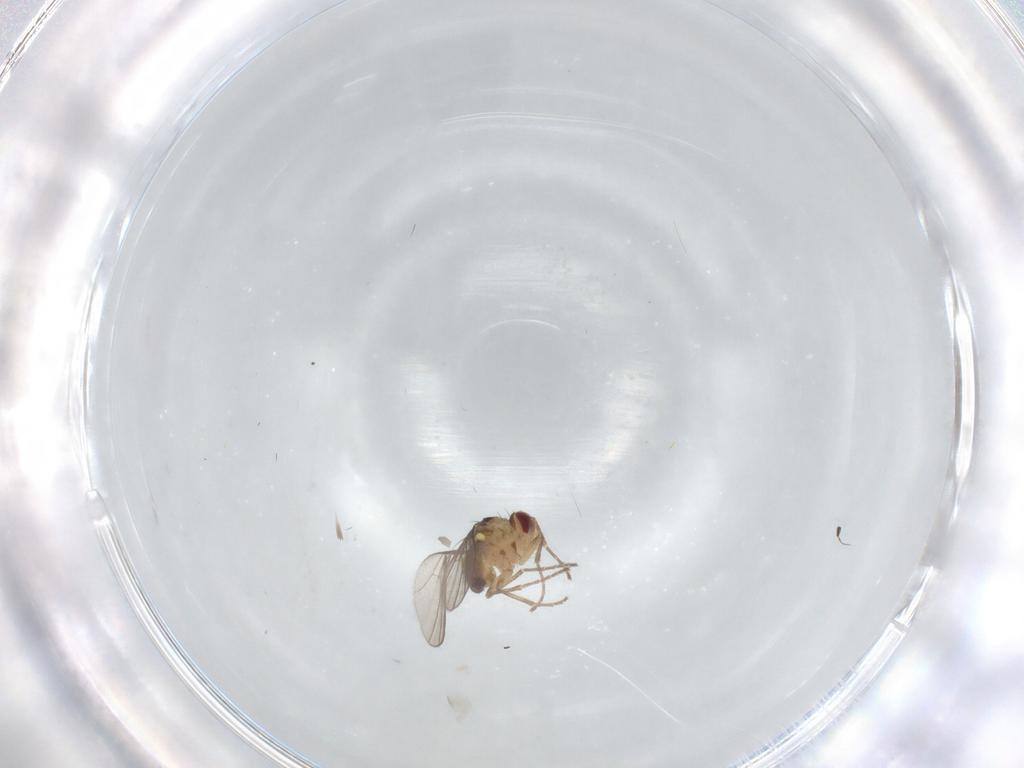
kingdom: Animalia
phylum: Arthropoda
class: Insecta
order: Diptera
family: Agromyzidae
